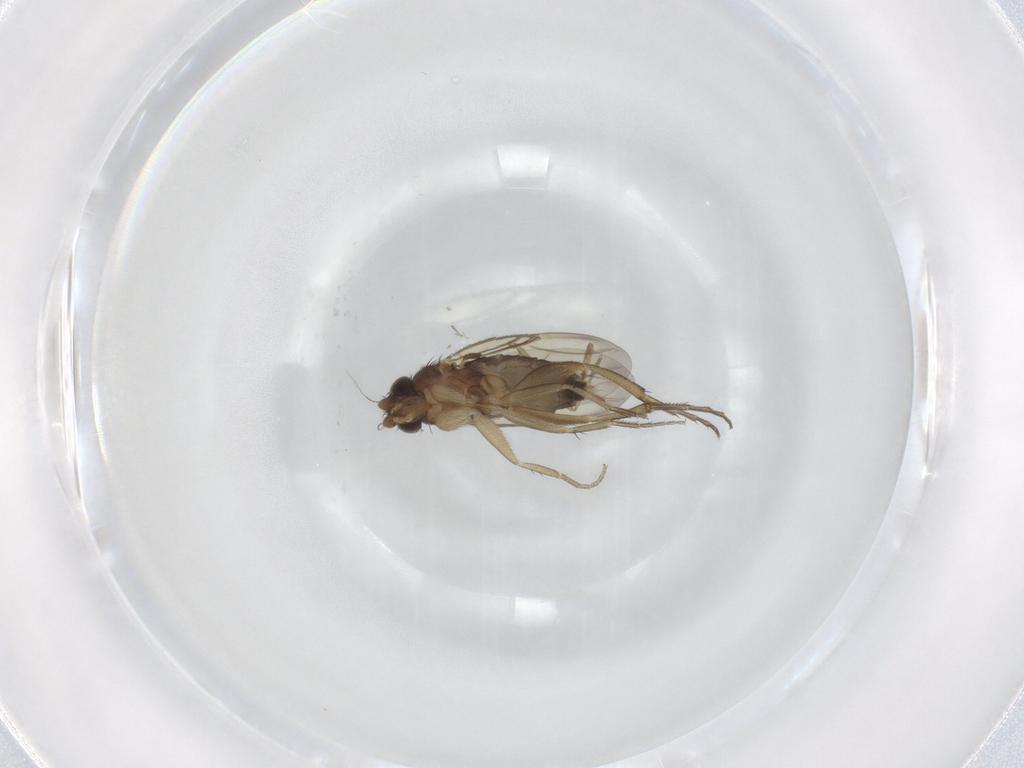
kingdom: Animalia
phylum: Arthropoda
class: Insecta
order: Diptera
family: Phoridae
